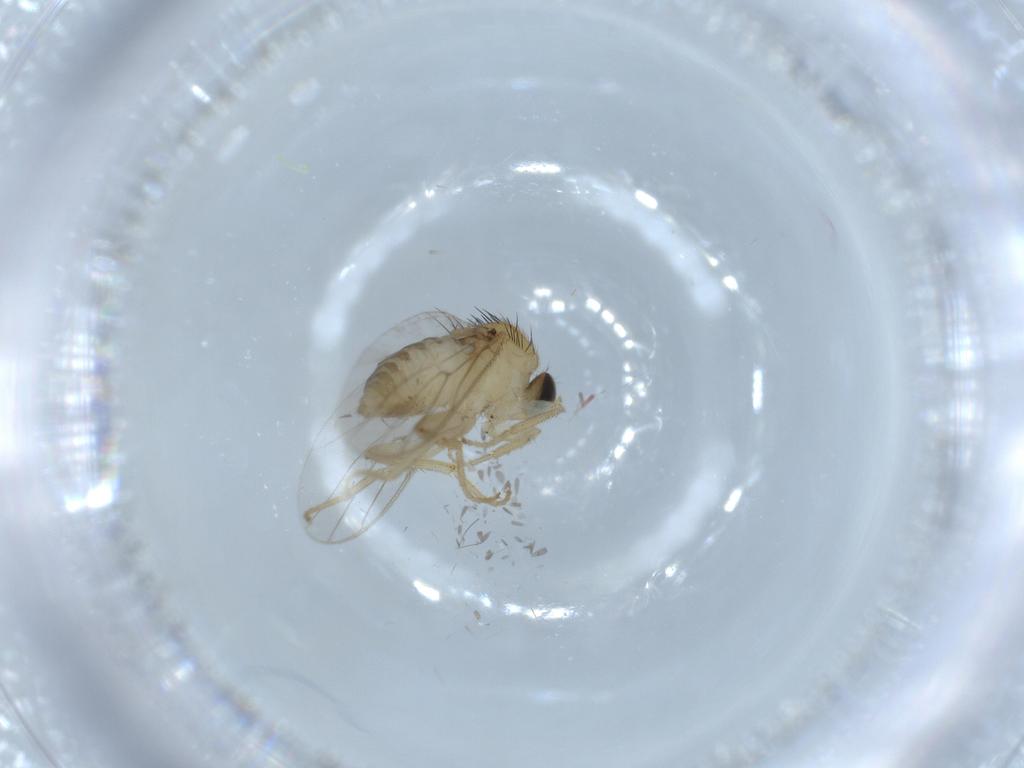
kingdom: Animalia
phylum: Arthropoda
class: Insecta
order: Diptera
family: Hybotidae
